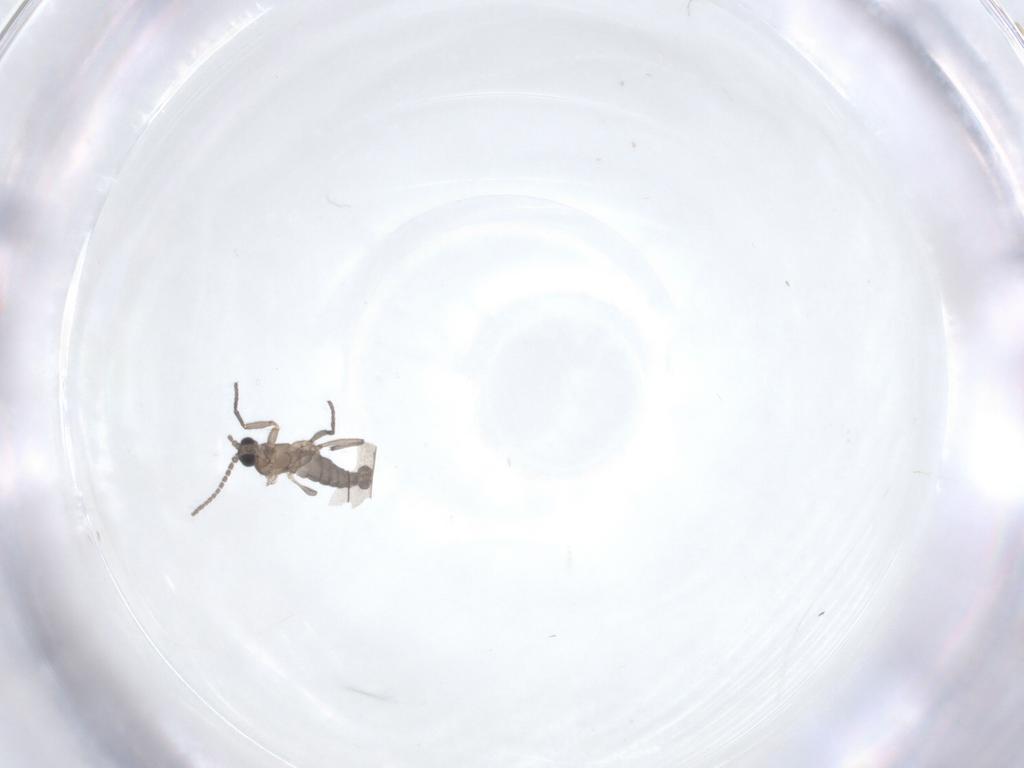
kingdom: Animalia
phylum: Arthropoda
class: Insecta
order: Diptera
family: Sciaridae
